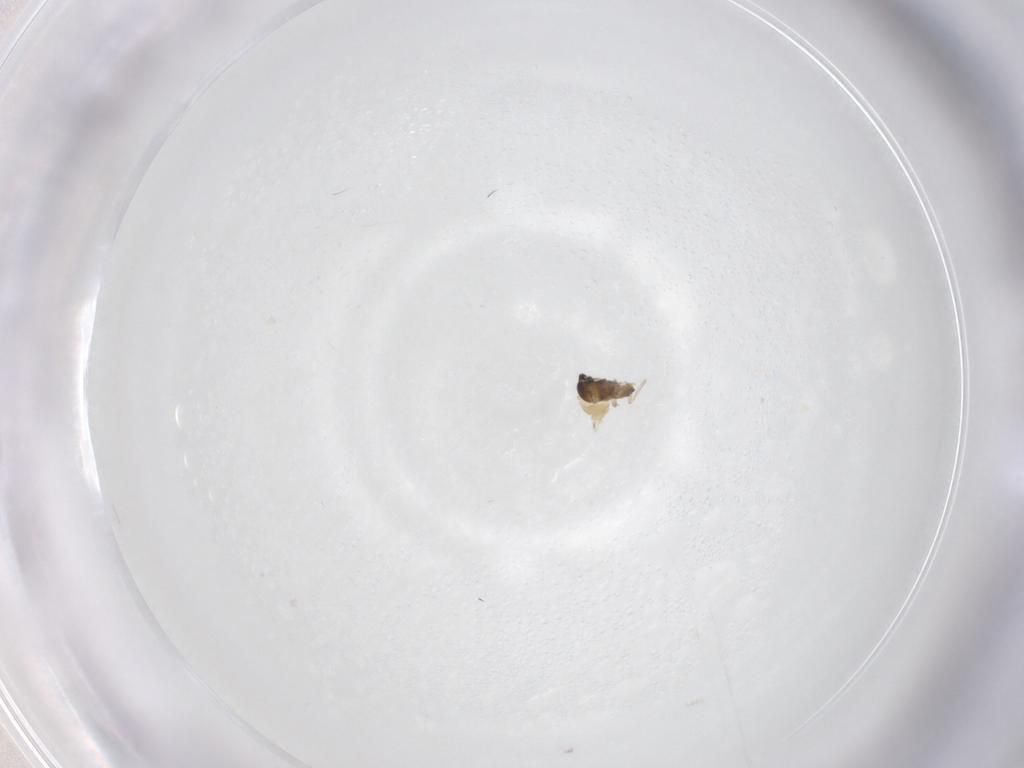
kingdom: Animalia
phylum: Arthropoda
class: Insecta
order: Diptera
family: Cecidomyiidae
